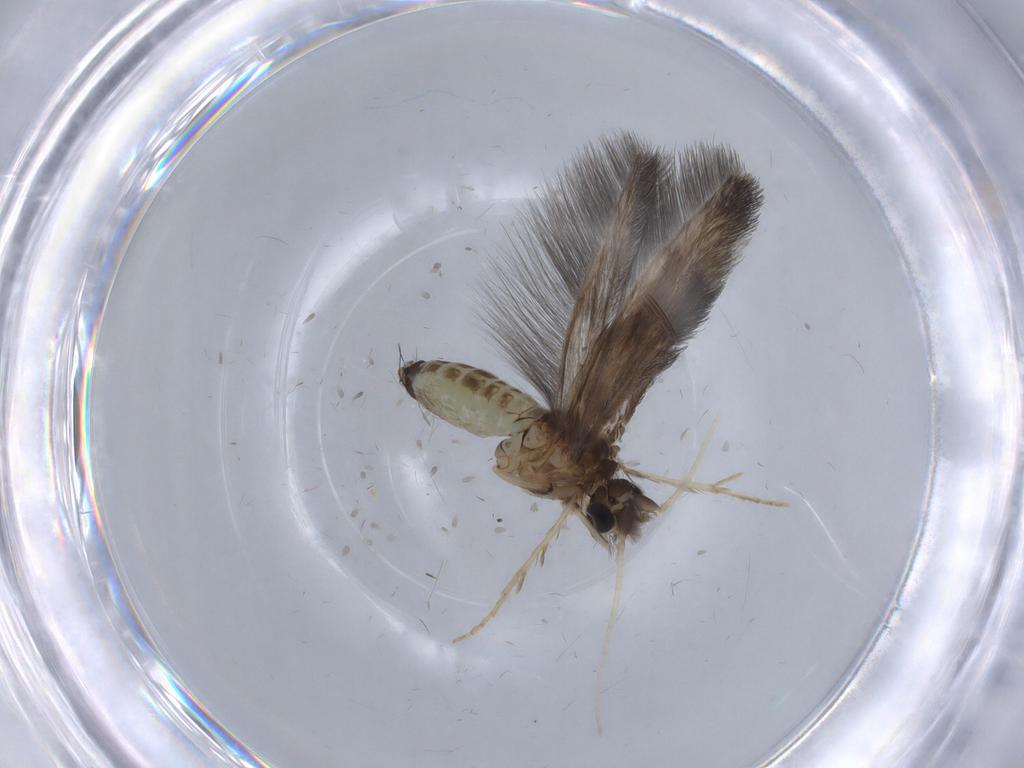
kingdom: Animalia
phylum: Arthropoda
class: Insecta
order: Trichoptera
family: Hydroptilidae
